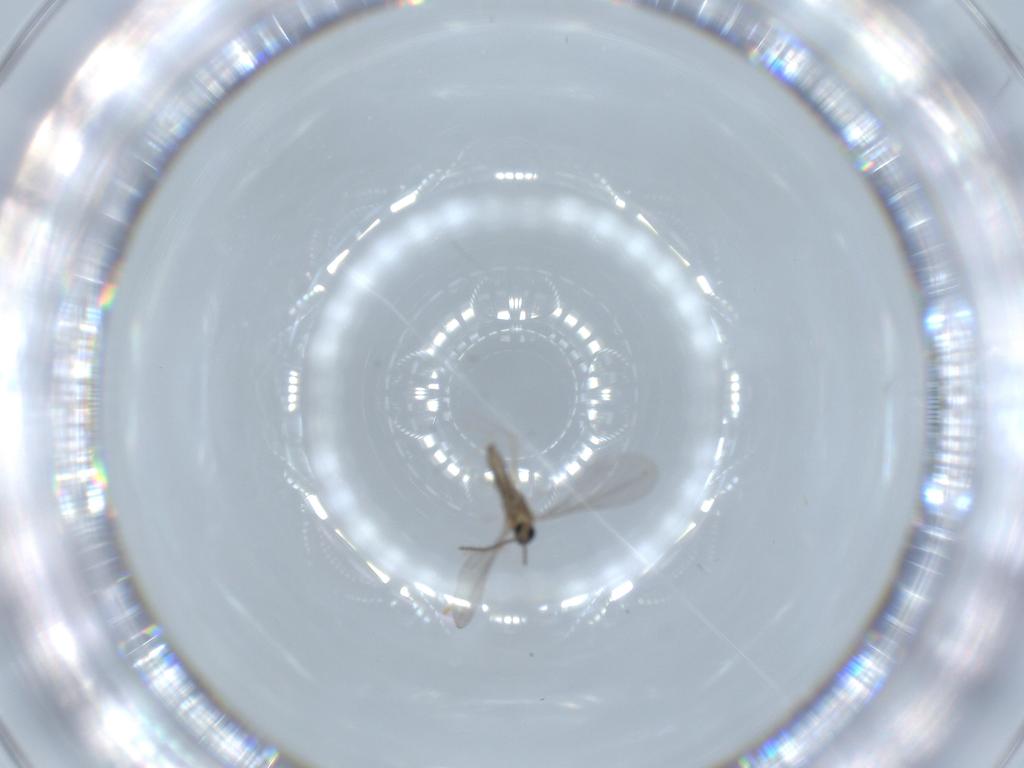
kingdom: Animalia
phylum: Arthropoda
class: Insecta
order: Diptera
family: Cecidomyiidae
